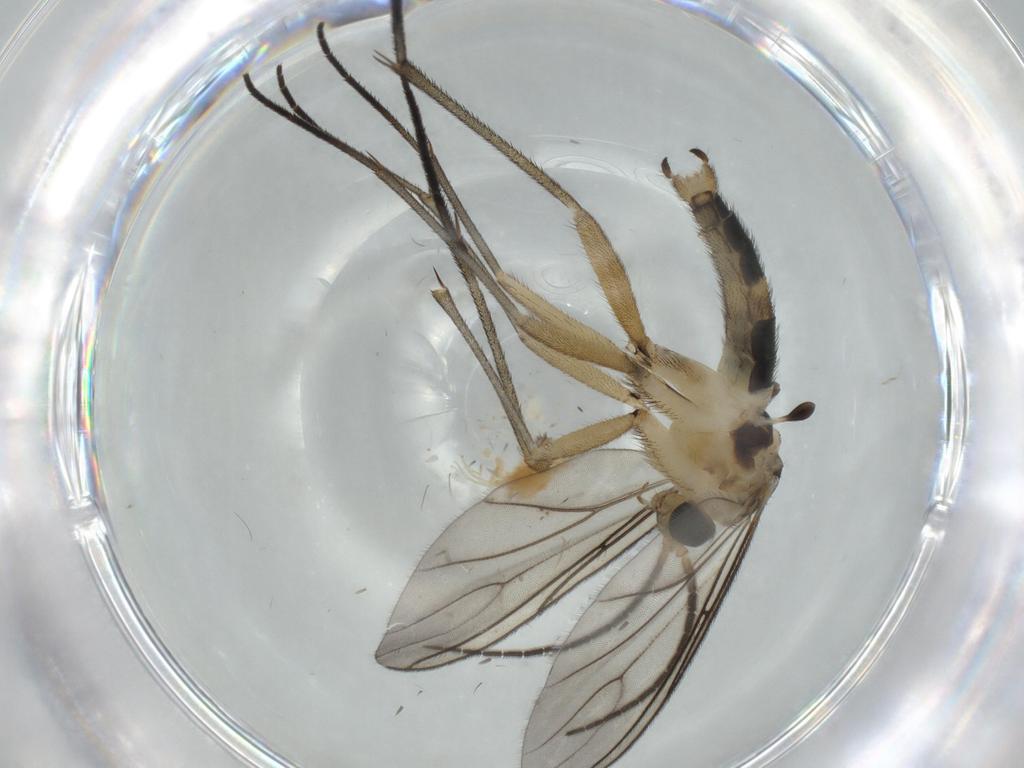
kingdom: Animalia
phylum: Arthropoda
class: Insecta
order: Diptera
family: Sciaridae
